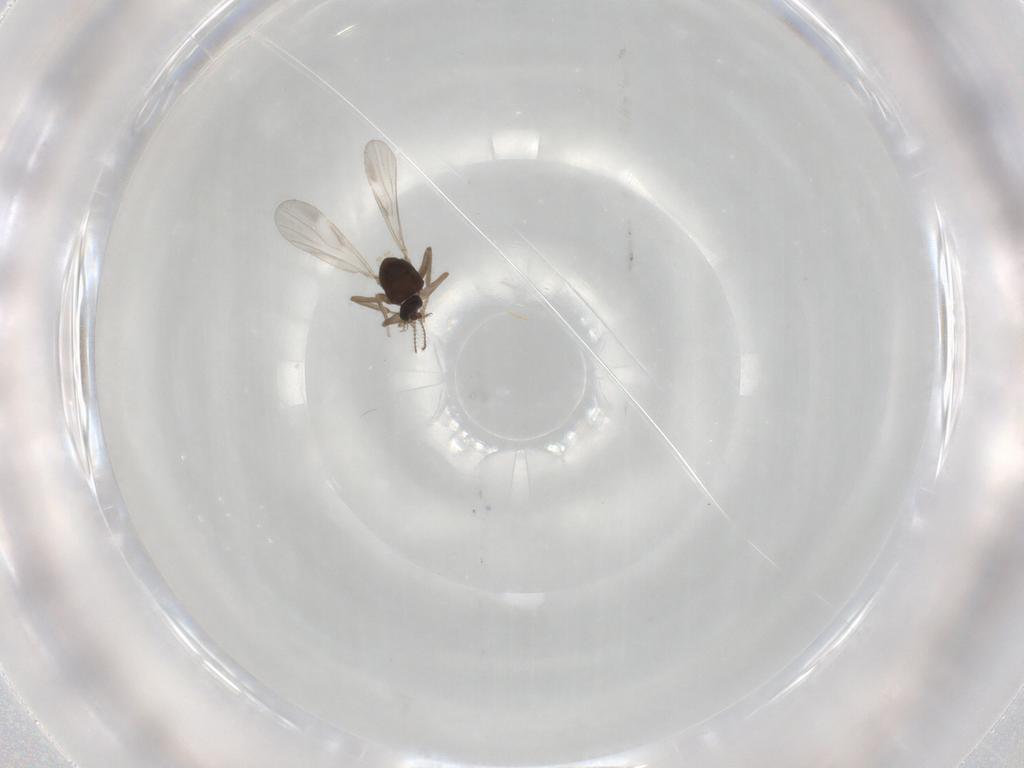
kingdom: Animalia
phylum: Arthropoda
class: Insecta
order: Diptera
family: Ceratopogonidae
